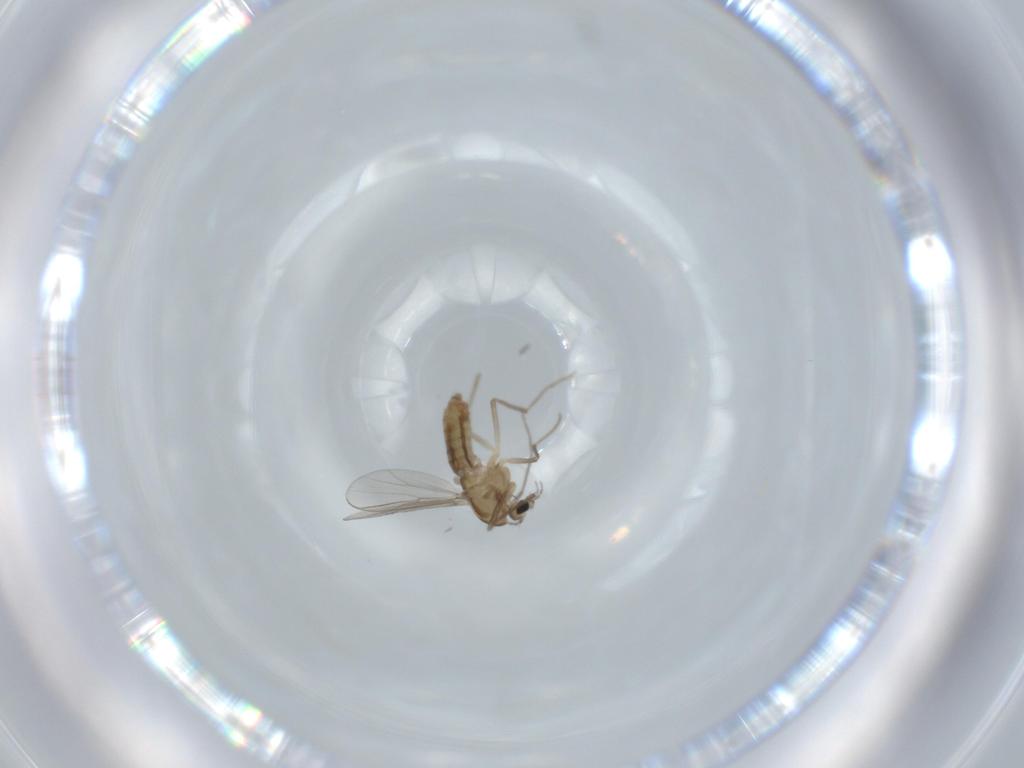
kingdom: Animalia
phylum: Arthropoda
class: Insecta
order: Diptera
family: Chironomidae
